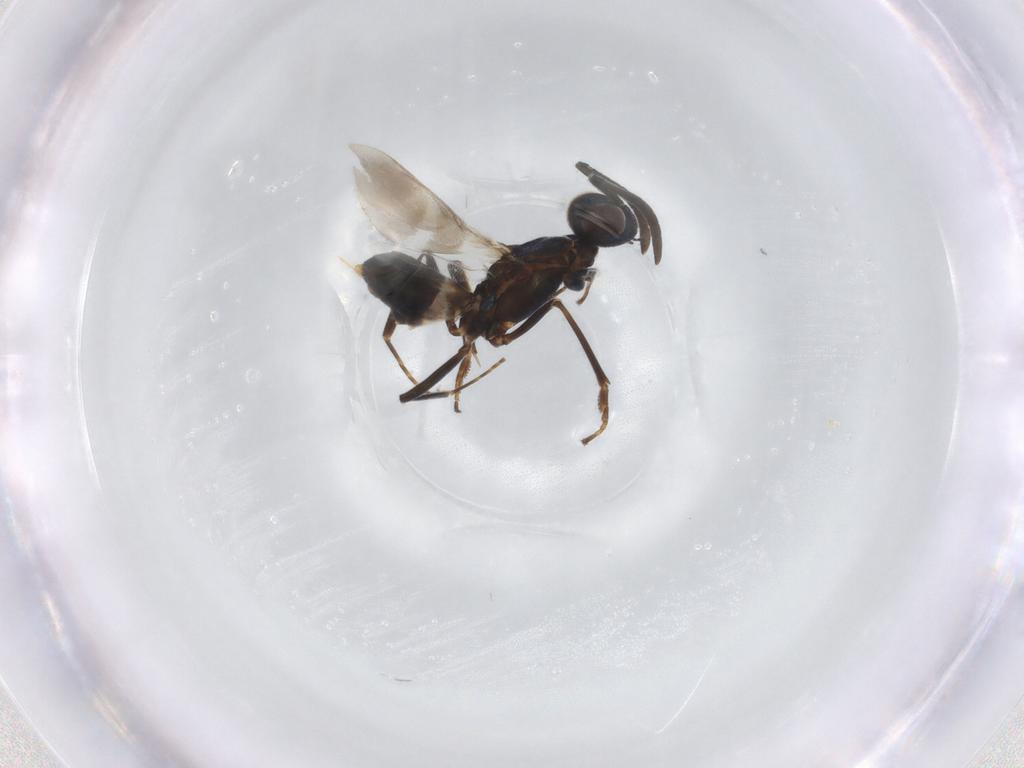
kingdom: Animalia
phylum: Arthropoda
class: Insecta
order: Hymenoptera
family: Eupelmidae
